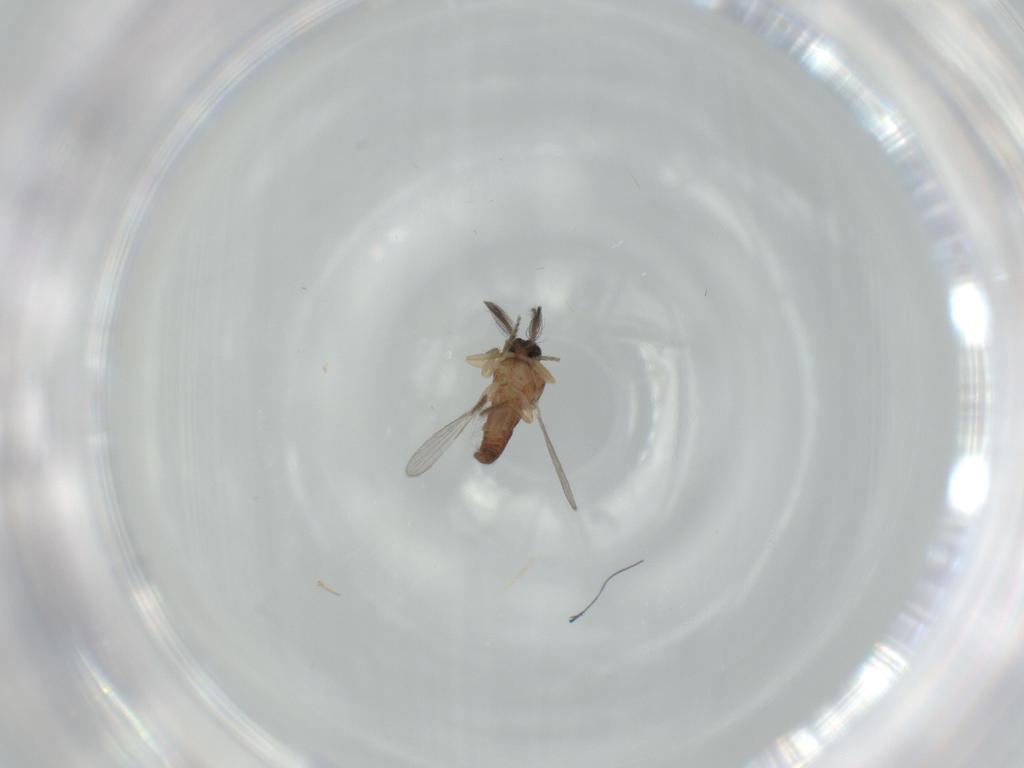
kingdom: Animalia
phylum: Arthropoda
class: Insecta
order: Diptera
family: Ceratopogonidae
